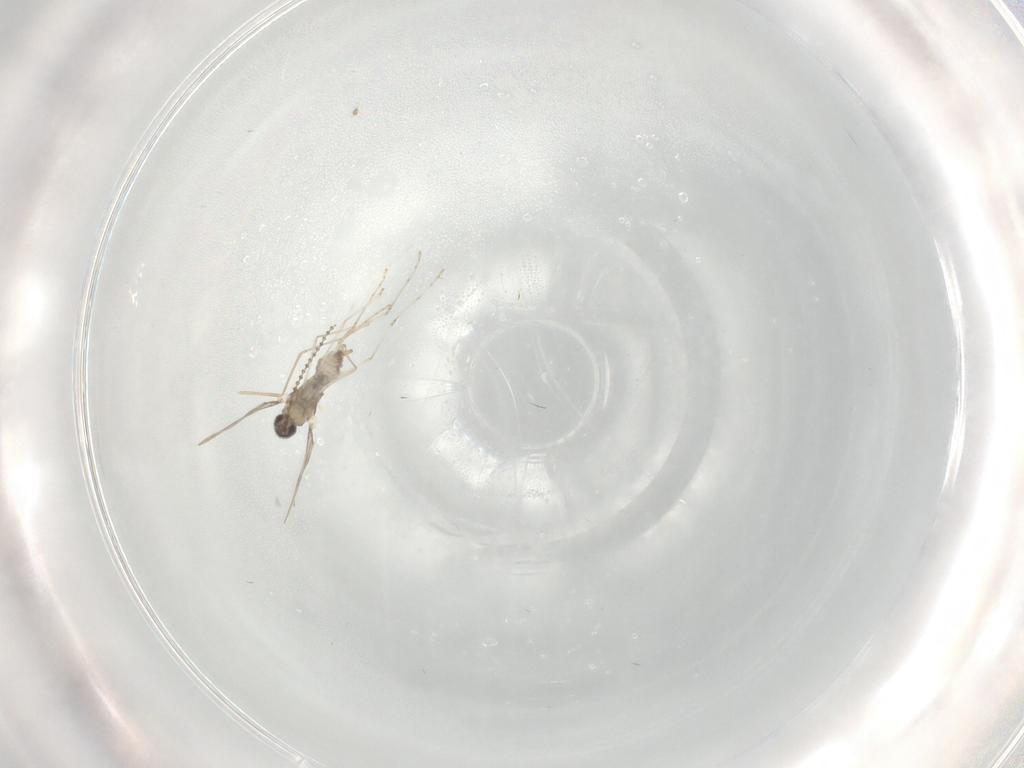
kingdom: Animalia
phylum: Arthropoda
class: Insecta
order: Diptera
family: Cecidomyiidae
